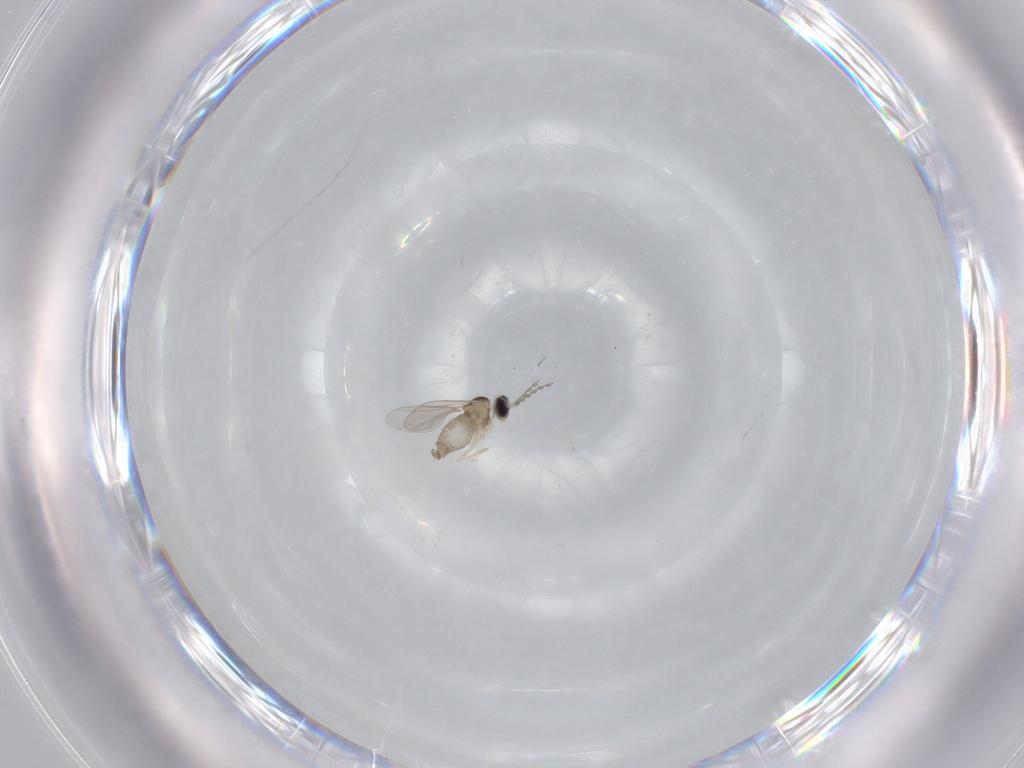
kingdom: Animalia
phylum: Arthropoda
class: Insecta
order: Diptera
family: Cecidomyiidae
